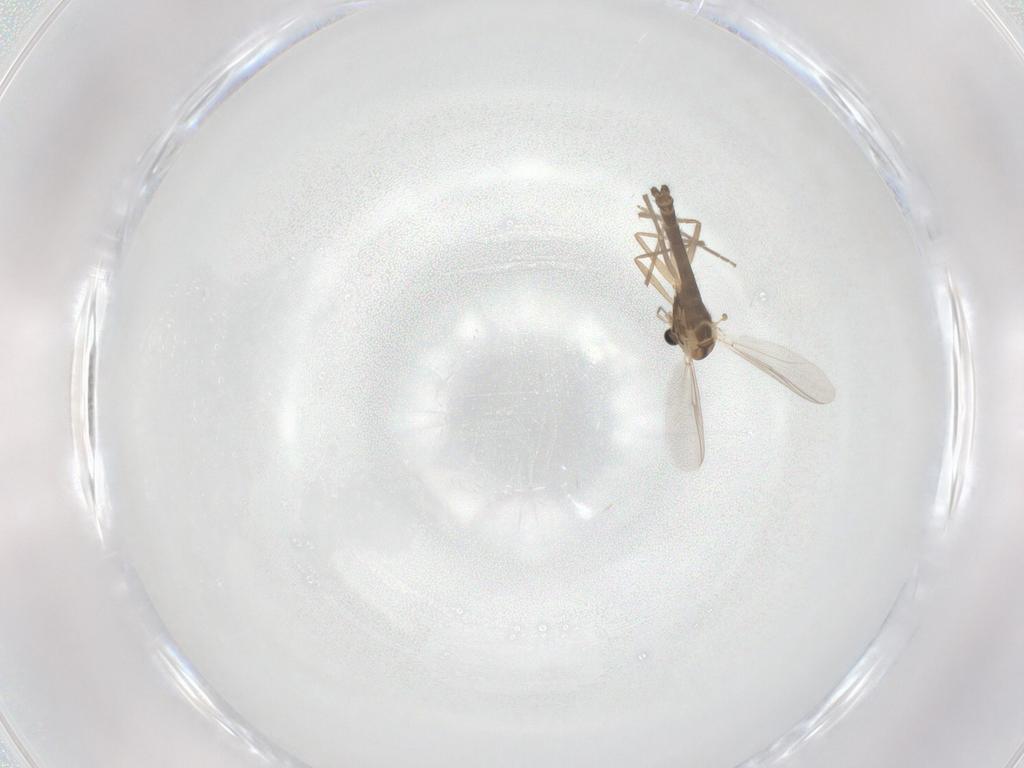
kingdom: Animalia
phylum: Arthropoda
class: Insecta
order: Diptera
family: Chironomidae
